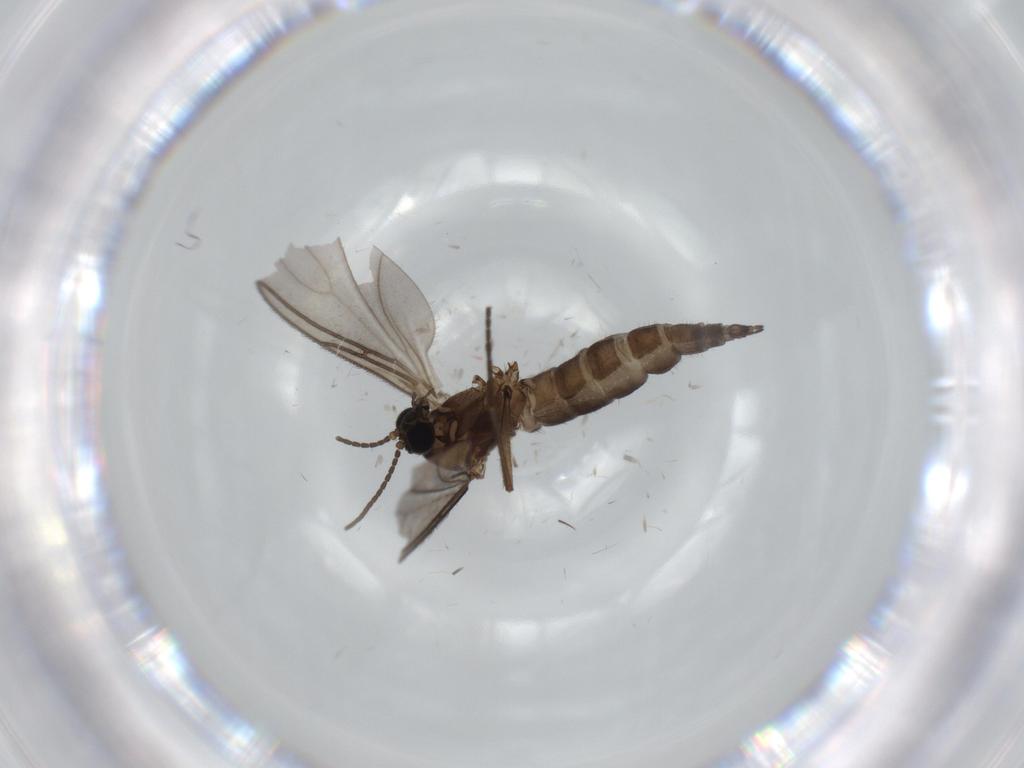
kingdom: Animalia
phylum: Arthropoda
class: Insecta
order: Diptera
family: Sciaridae
